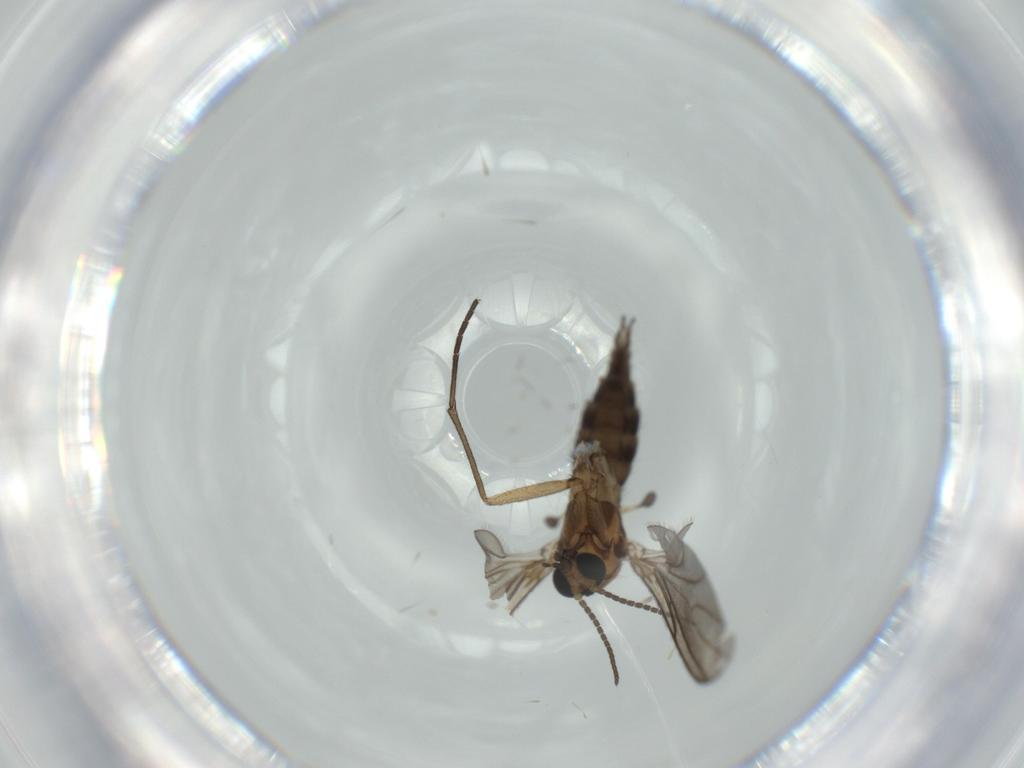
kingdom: Animalia
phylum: Arthropoda
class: Insecta
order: Diptera
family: Sciaridae
